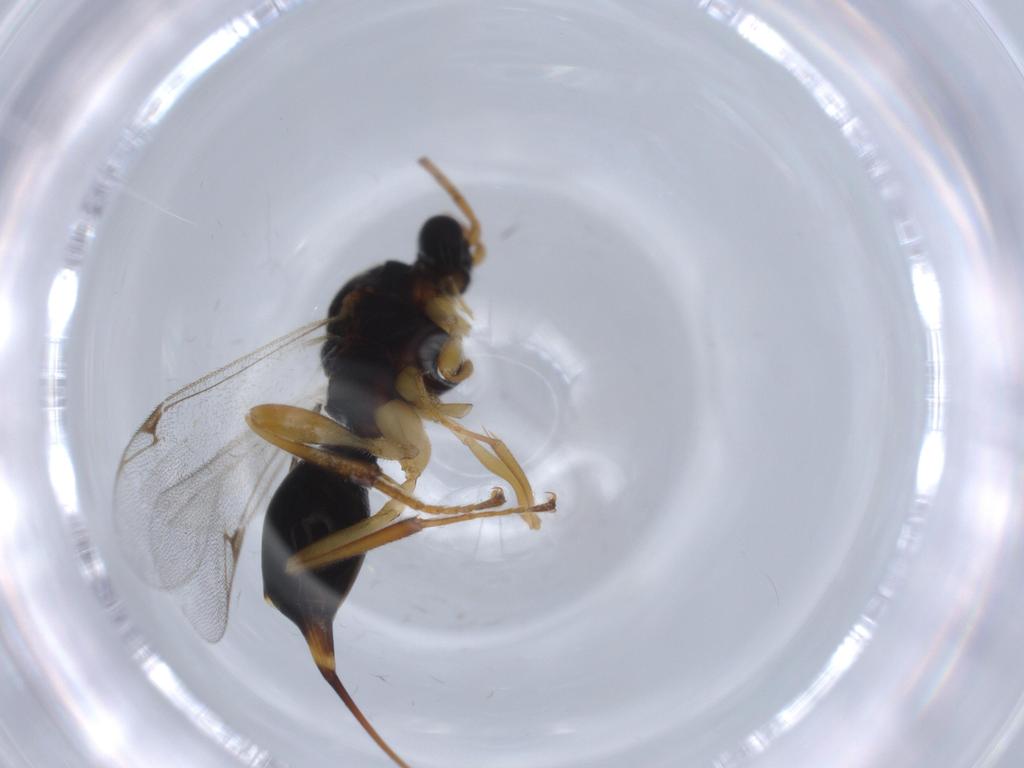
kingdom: Animalia
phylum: Arthropoda
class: Insecta
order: Hymenoptera
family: Proctotrupidae
